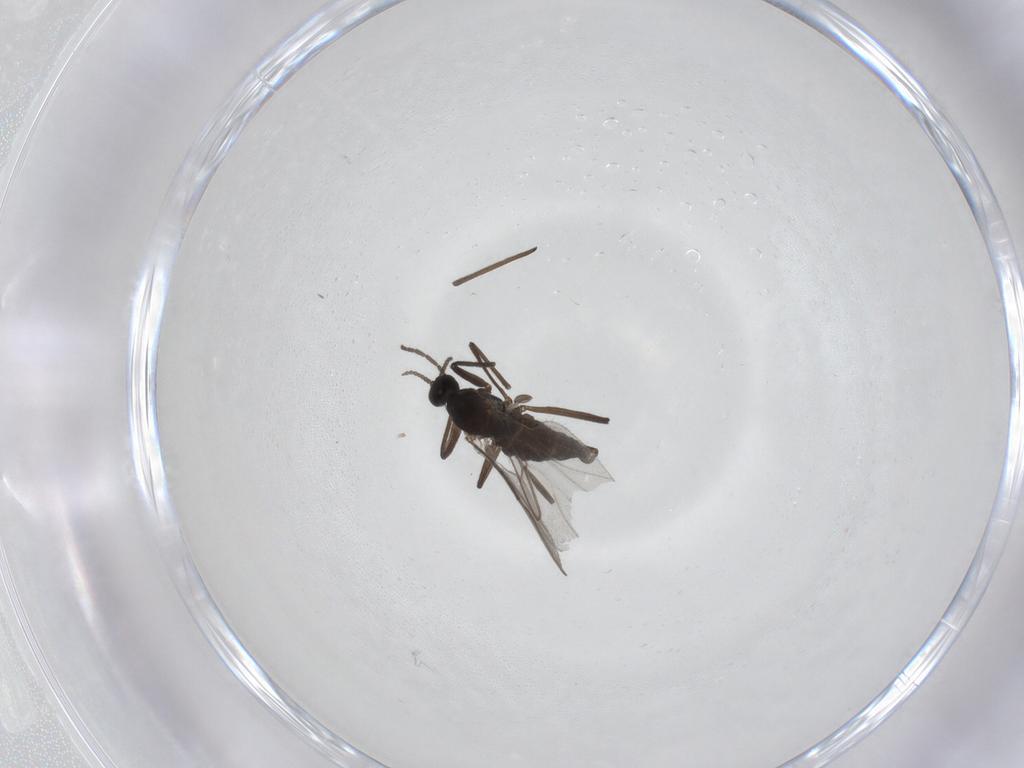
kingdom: Animalia
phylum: Arthropoda
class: Insecta
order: Diptera
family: Cecidomyiidae
